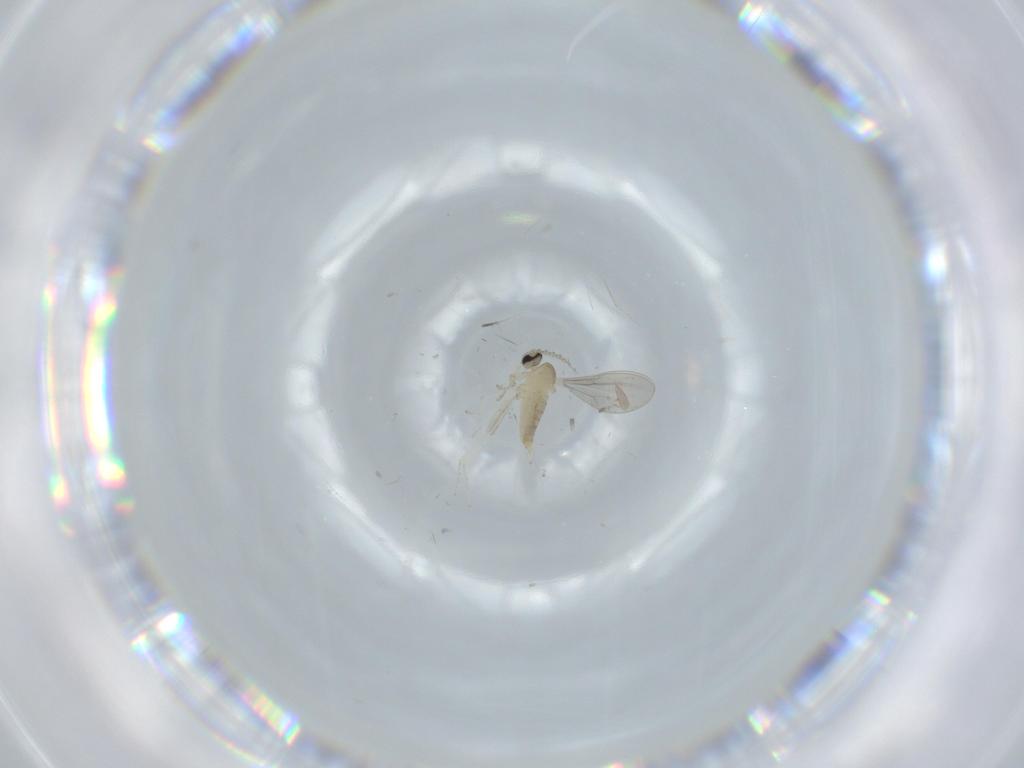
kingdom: Animalia
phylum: Arthropoda
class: Insecta
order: Diptera
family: Cecidomyiidae
